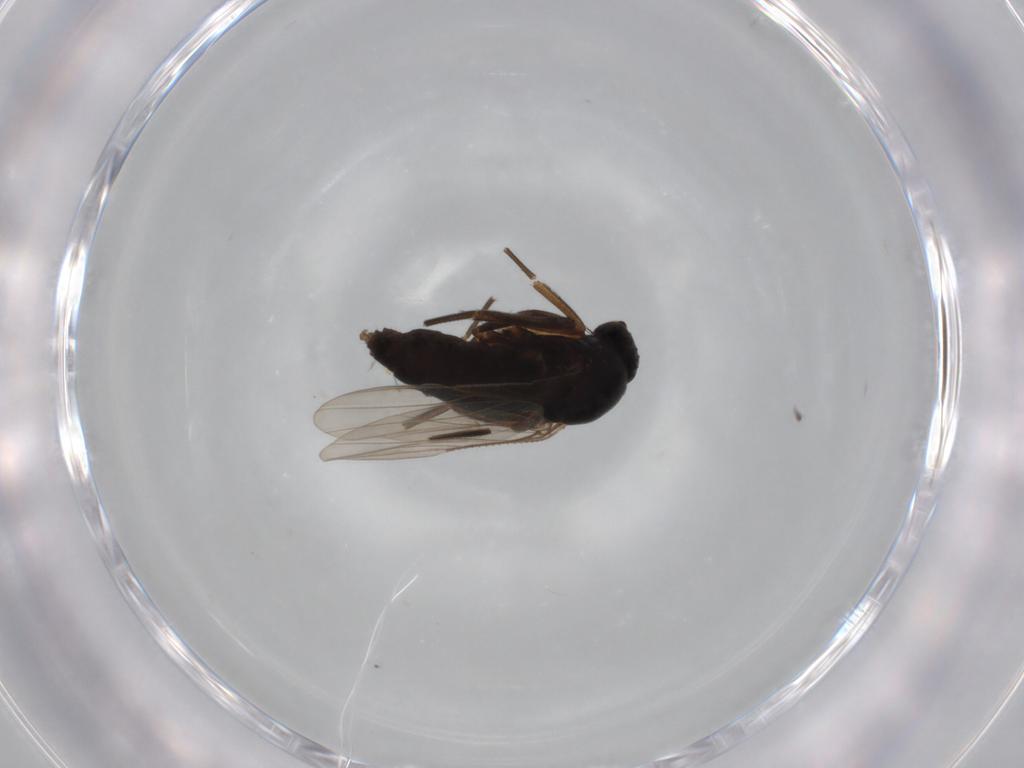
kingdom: Animalia
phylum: Arthropoda
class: Insecta
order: Diptera
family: Phoridae
